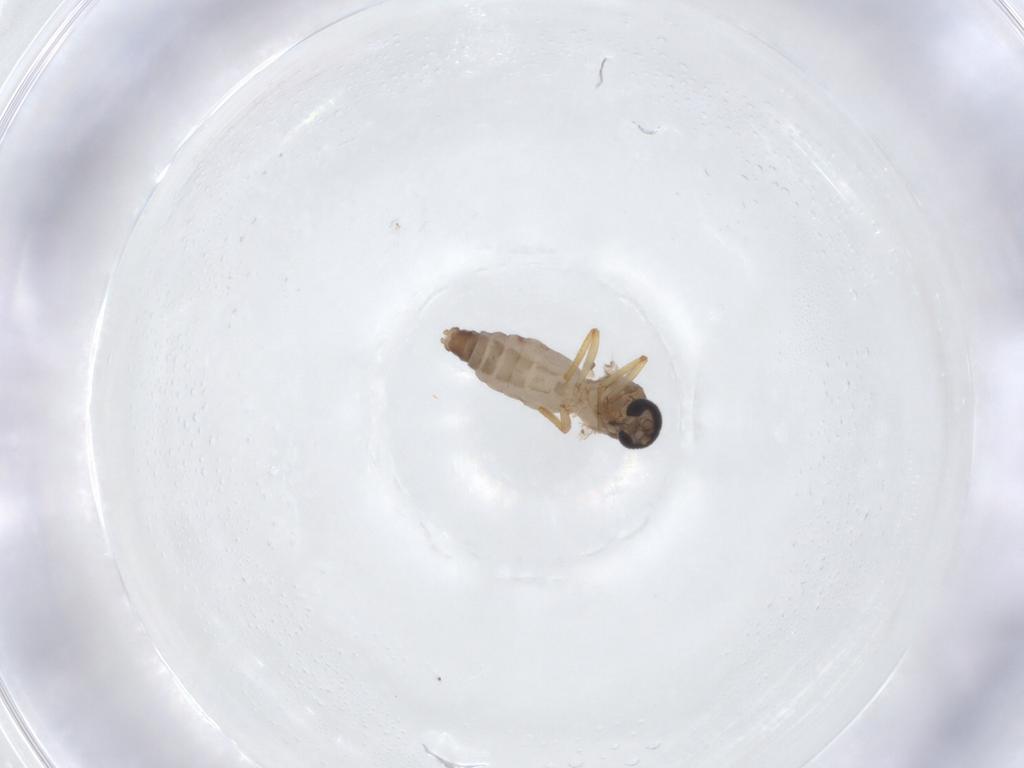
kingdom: Animalia
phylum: Arthropoda
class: Insecta
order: Diptera
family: Ceratopogonidae
